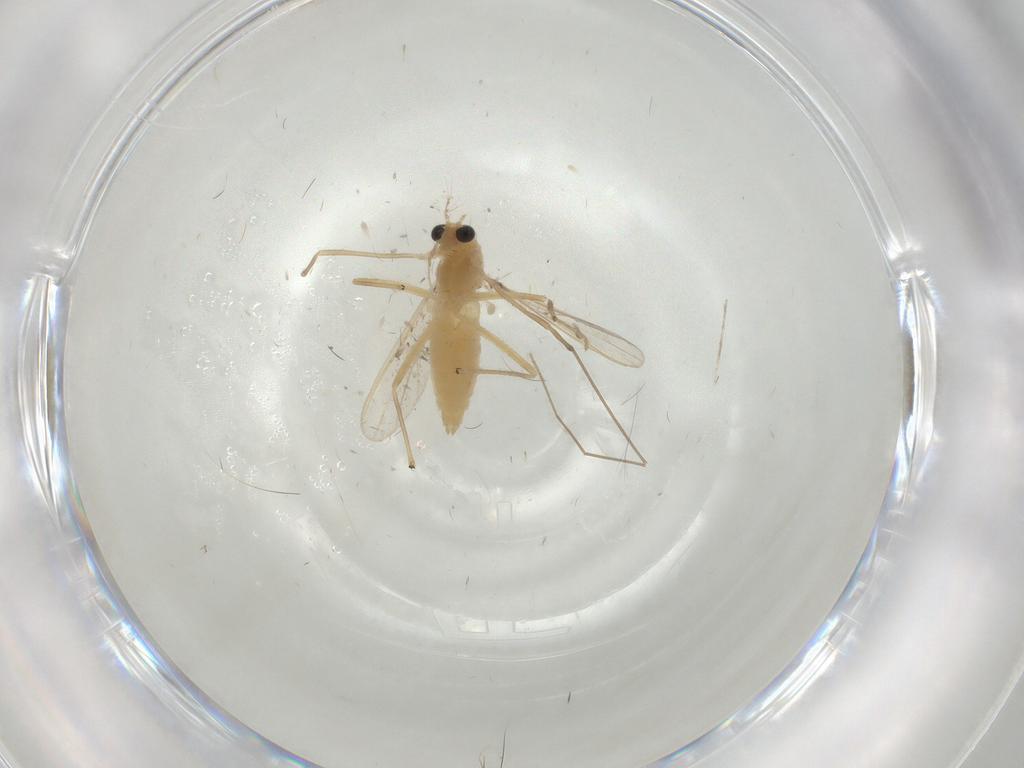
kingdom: Animalia
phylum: Arthropoda
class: Insecta
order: Diptera
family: Chironomidae
